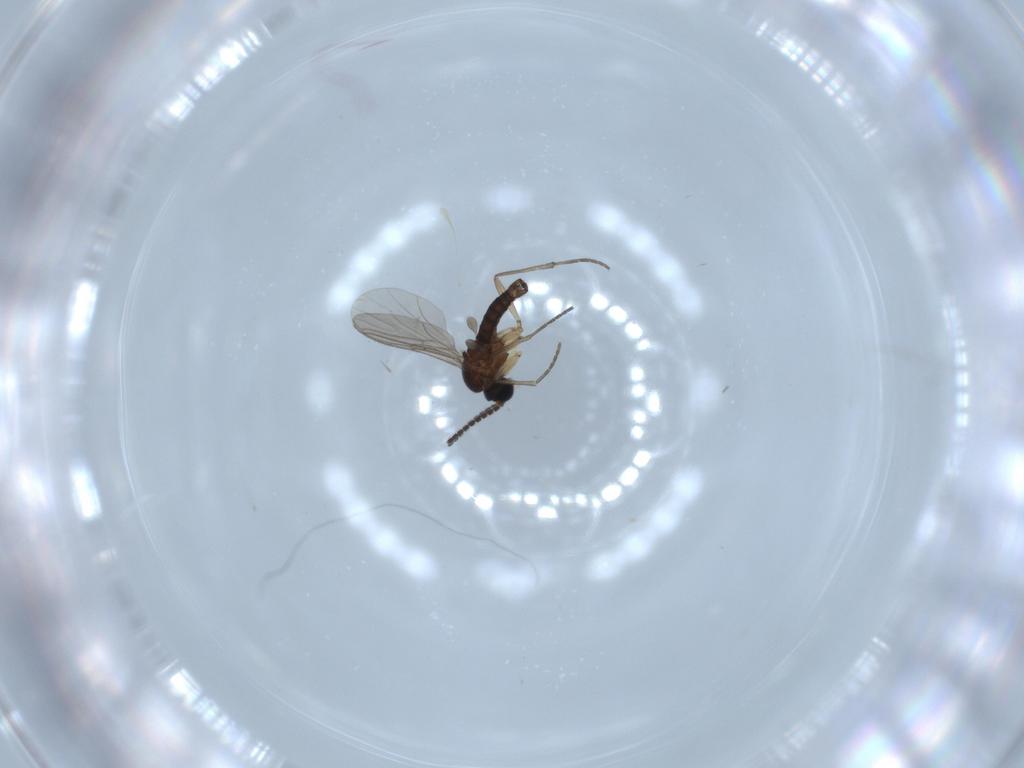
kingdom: Animalia
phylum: Arthropoda
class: Insecta
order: Diptera
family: Sciaridae
